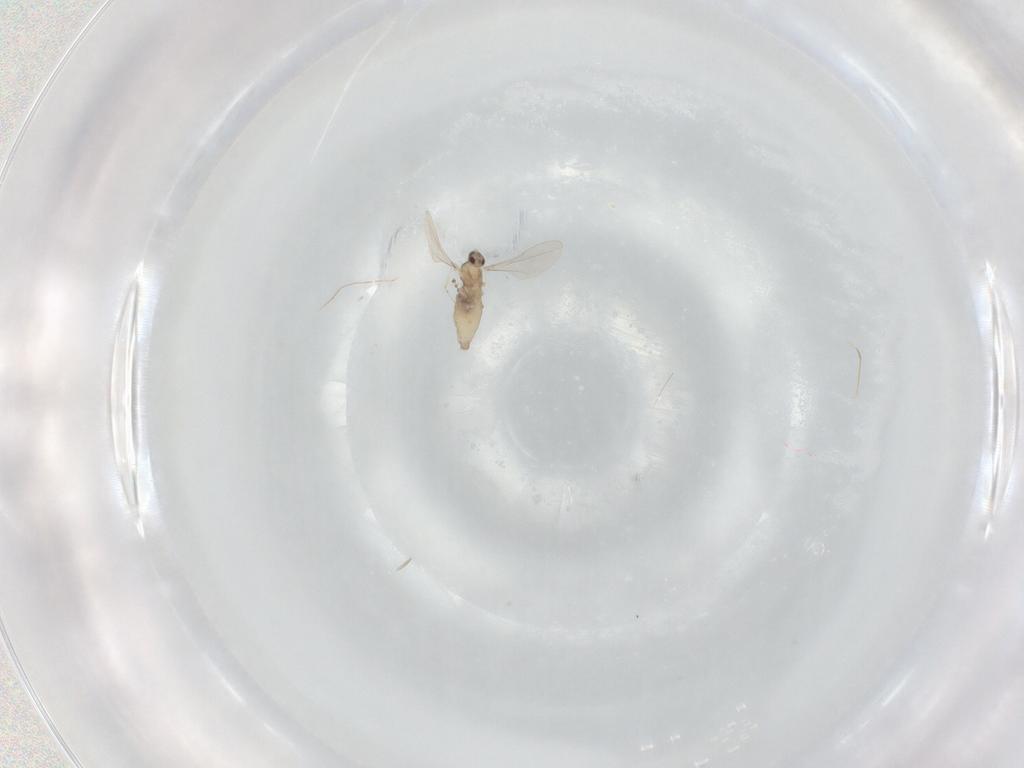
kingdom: Animalia
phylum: Arthropoda
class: Insecta
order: Diptera
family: Cecidomyiidae
